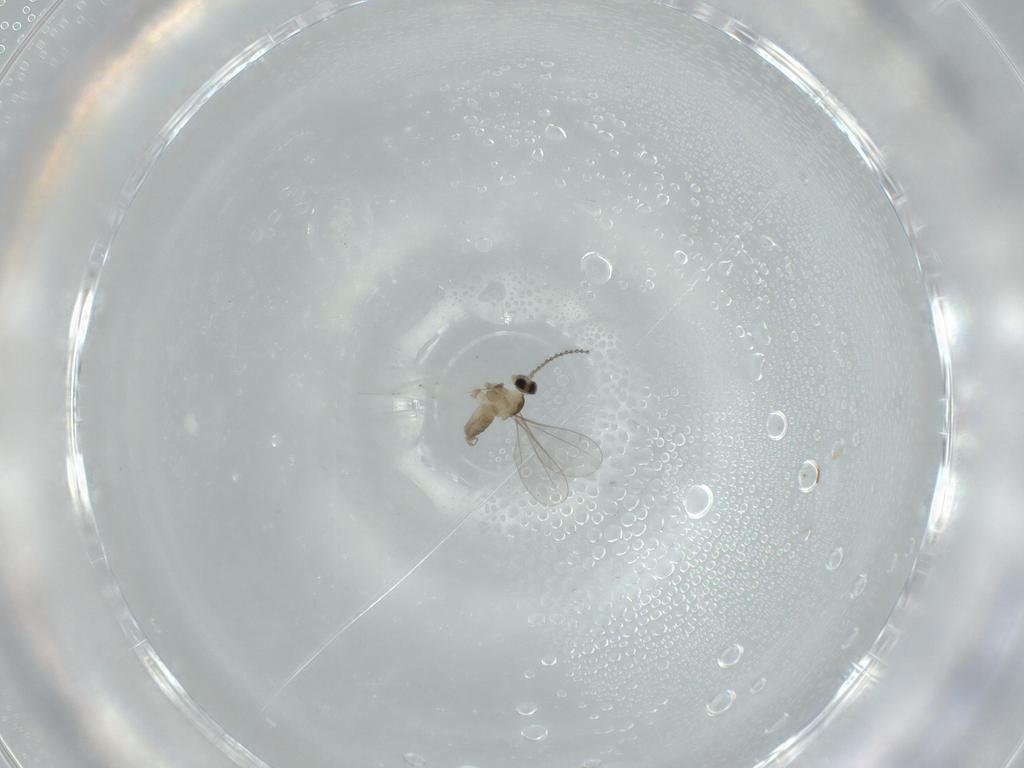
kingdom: Animalia
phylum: Arthropoda
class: Insecta
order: Diptera
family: Cecidomyiidae
